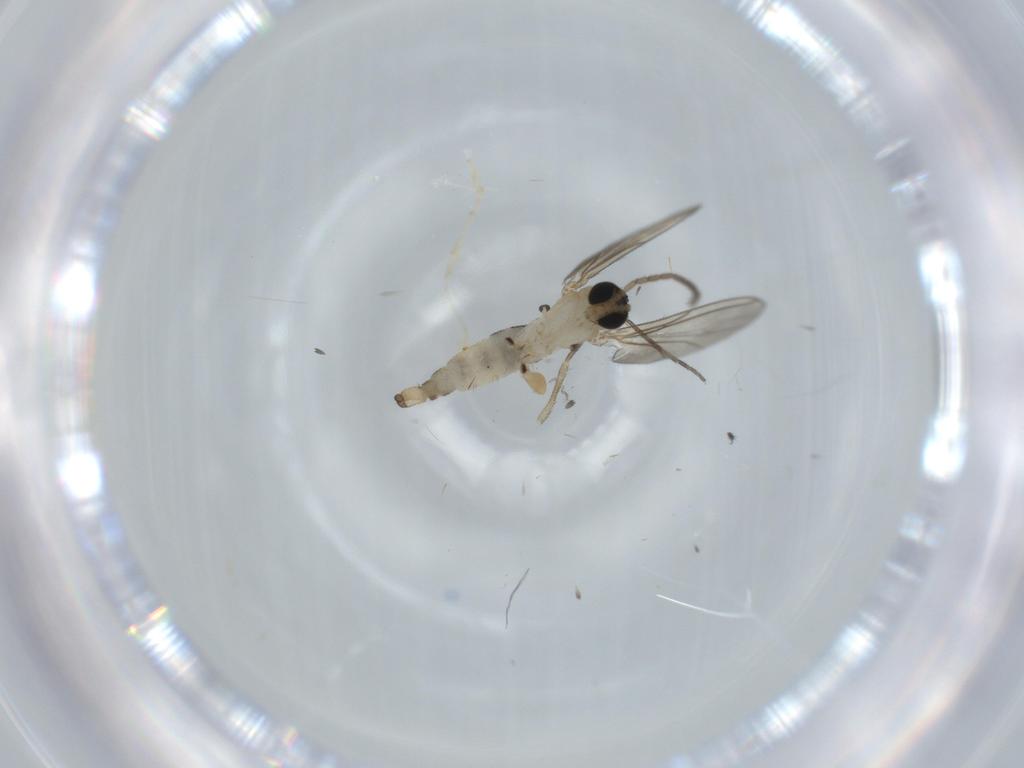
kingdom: Animalia
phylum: Arthropoda
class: Insecta
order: Diptera
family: Sciaridae
